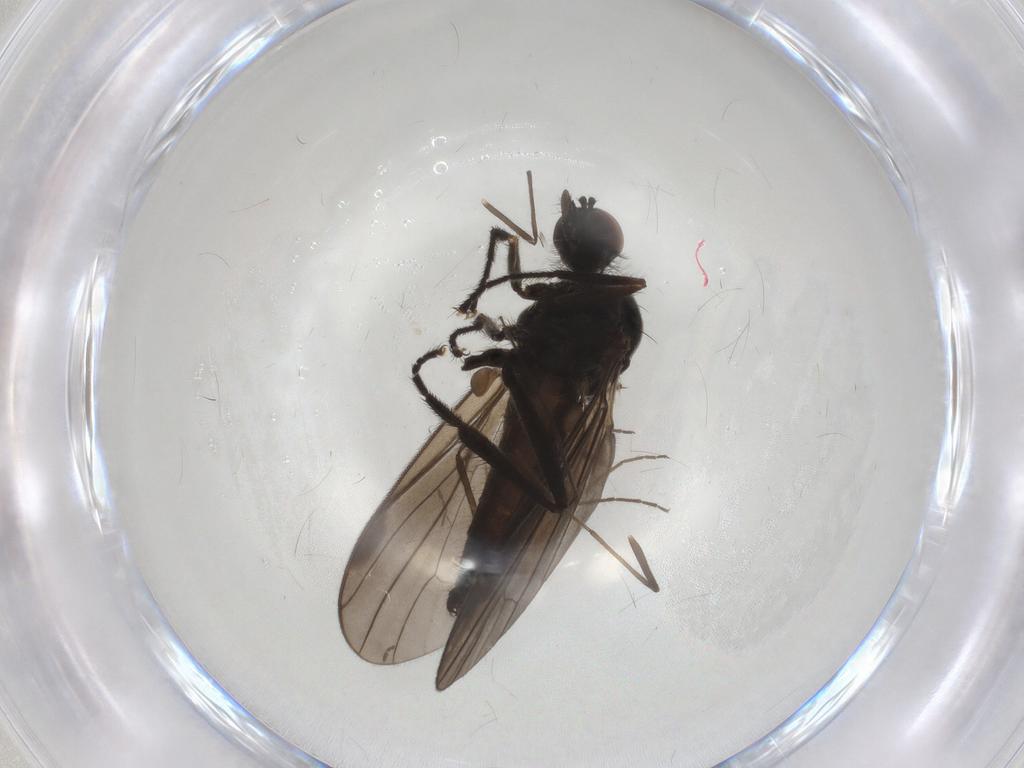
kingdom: Animalia
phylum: Arthropoda
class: Insecta
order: Diptera
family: Hybotidae
